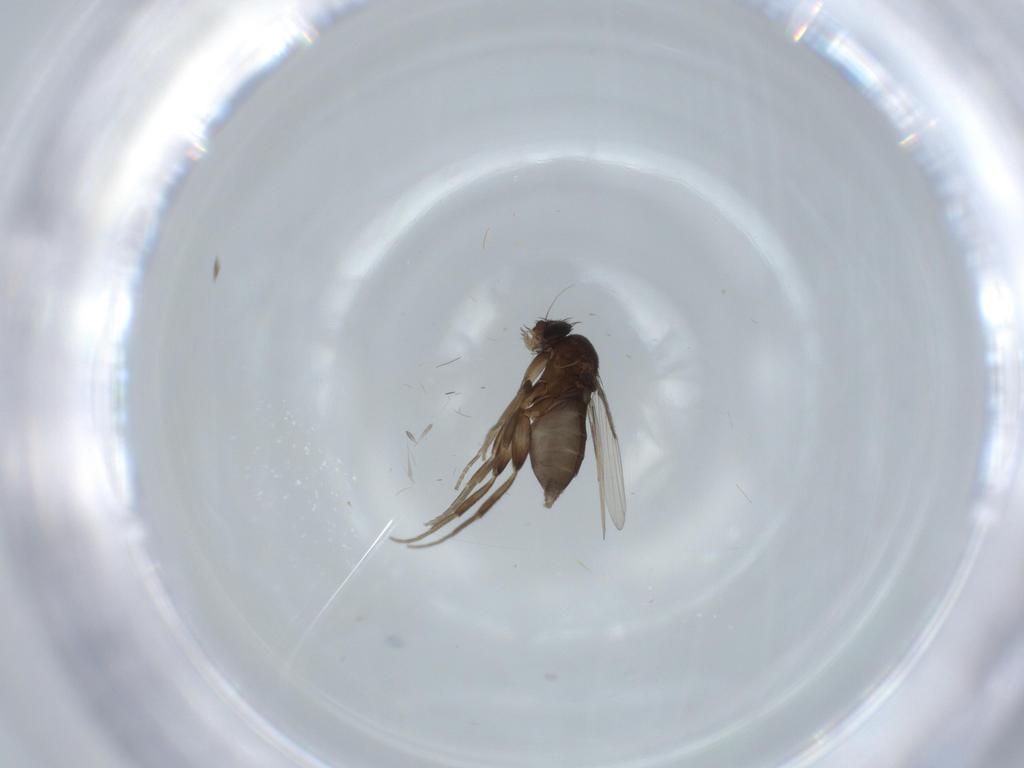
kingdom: Animalia
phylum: Arthropoda
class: Insecta
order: Diptera
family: Phoridae
